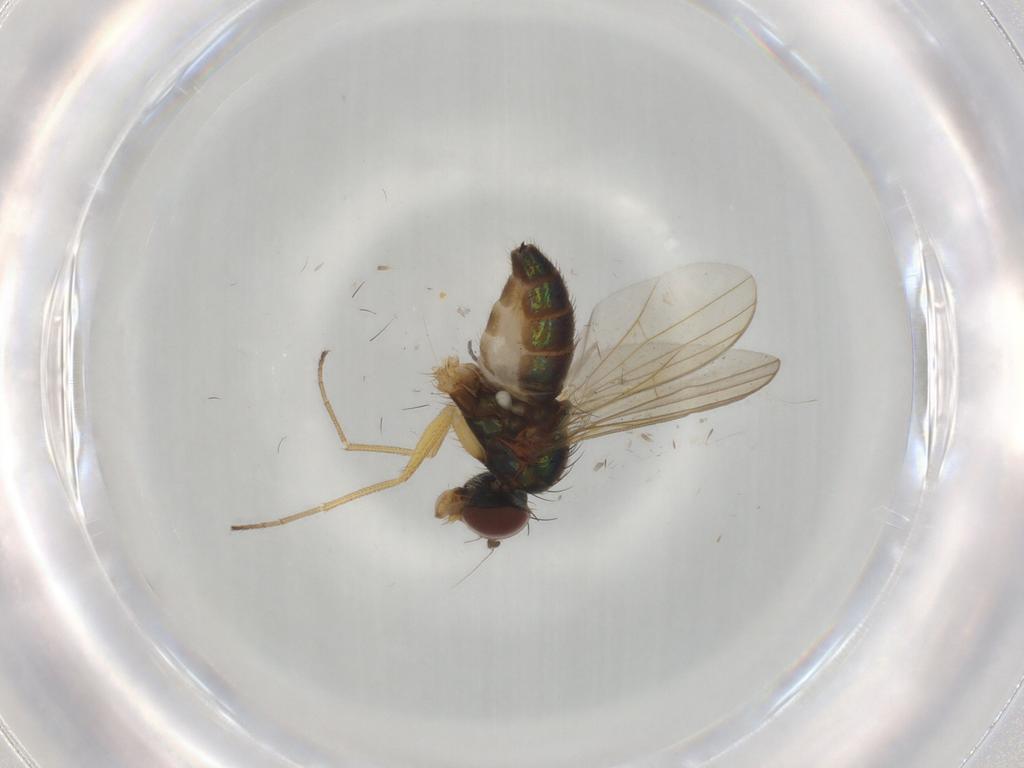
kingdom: Animalia
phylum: Arthropoda
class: Insecta
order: Diptera
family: Dolichopodidae
